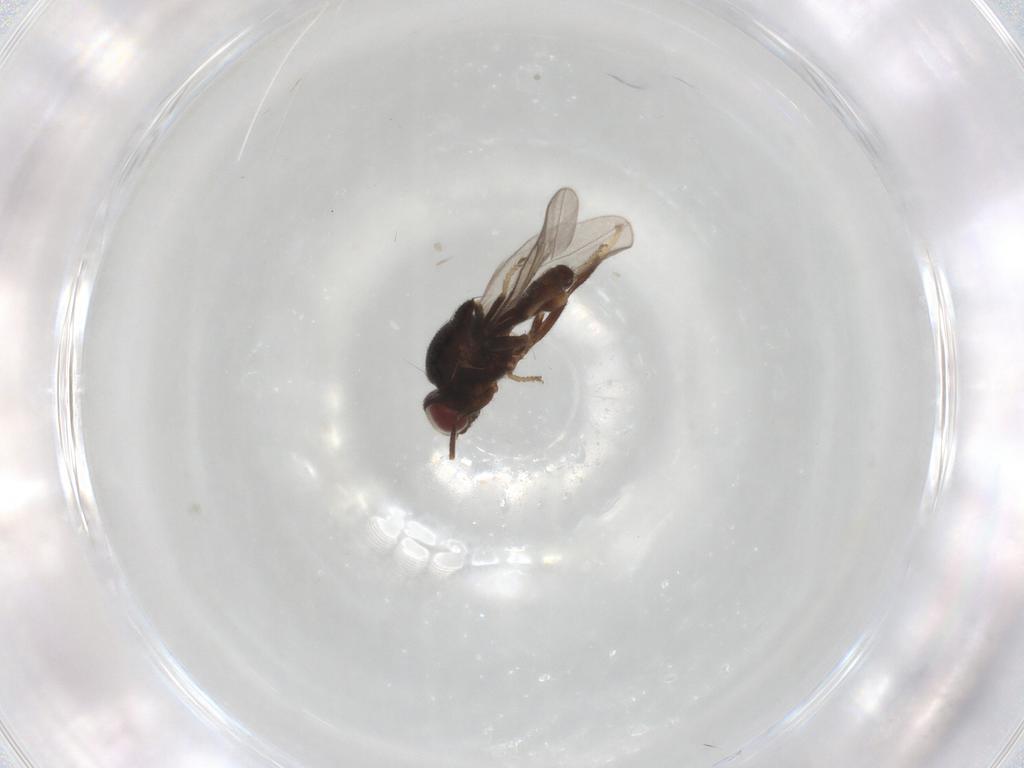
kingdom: Animalia
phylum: Arthropoda
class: Insecta
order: Diptera
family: Chloropidae
